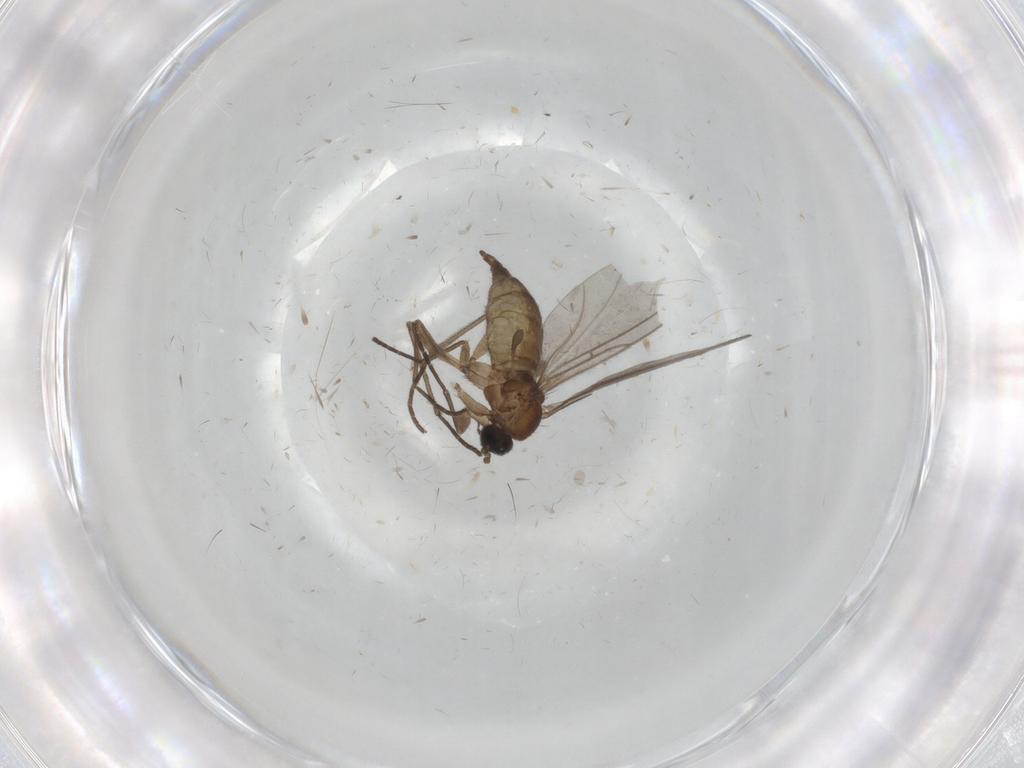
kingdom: Animalia
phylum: Arthropoda
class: Insecta
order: Diptera
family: Sciaridae
